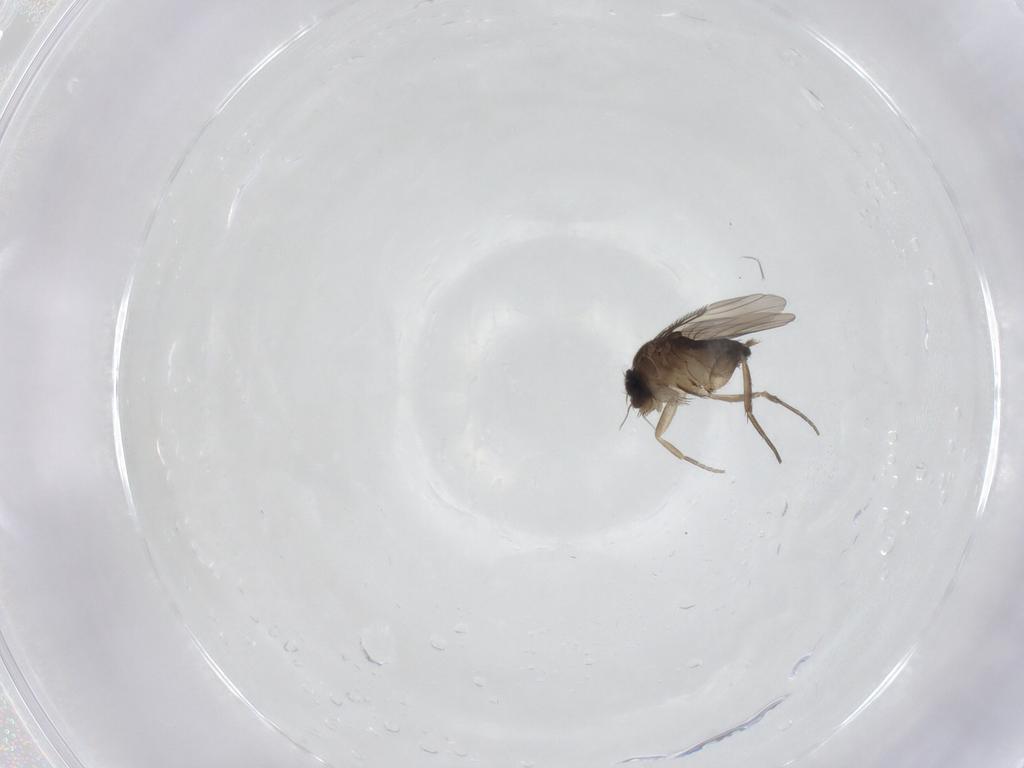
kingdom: Animalia
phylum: Arthropoda
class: Insecta
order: Diptera
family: Phoridae
